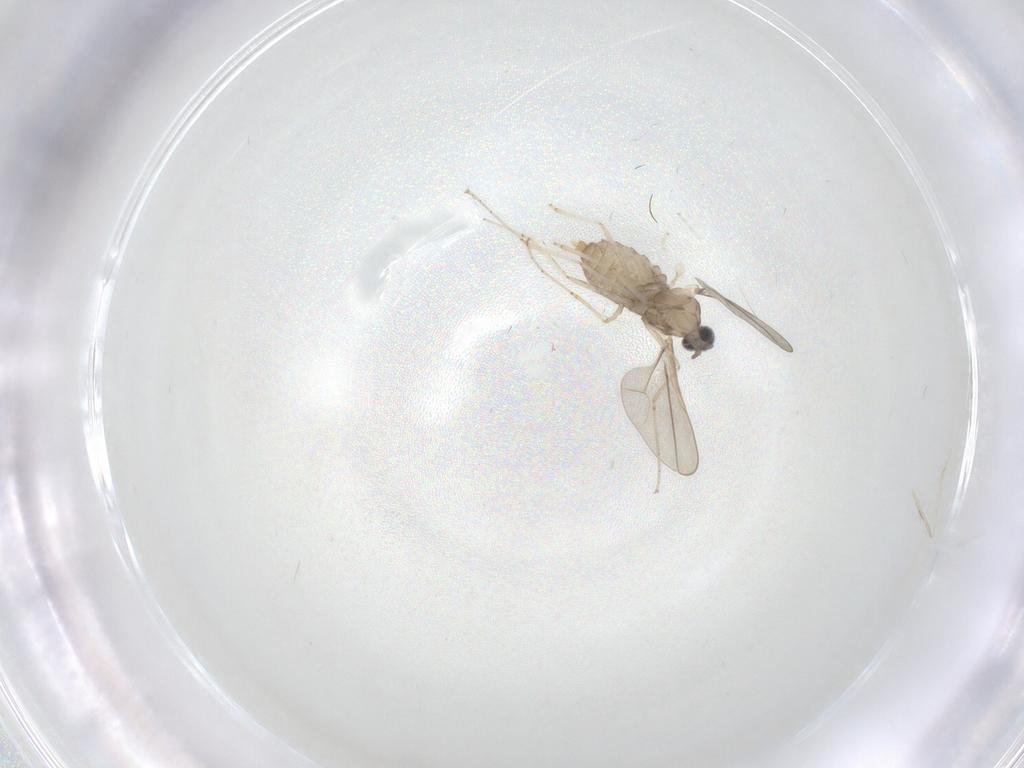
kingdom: Animalia
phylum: Arthropoda
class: Insecta
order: Diptera
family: Cecidomyiidae
